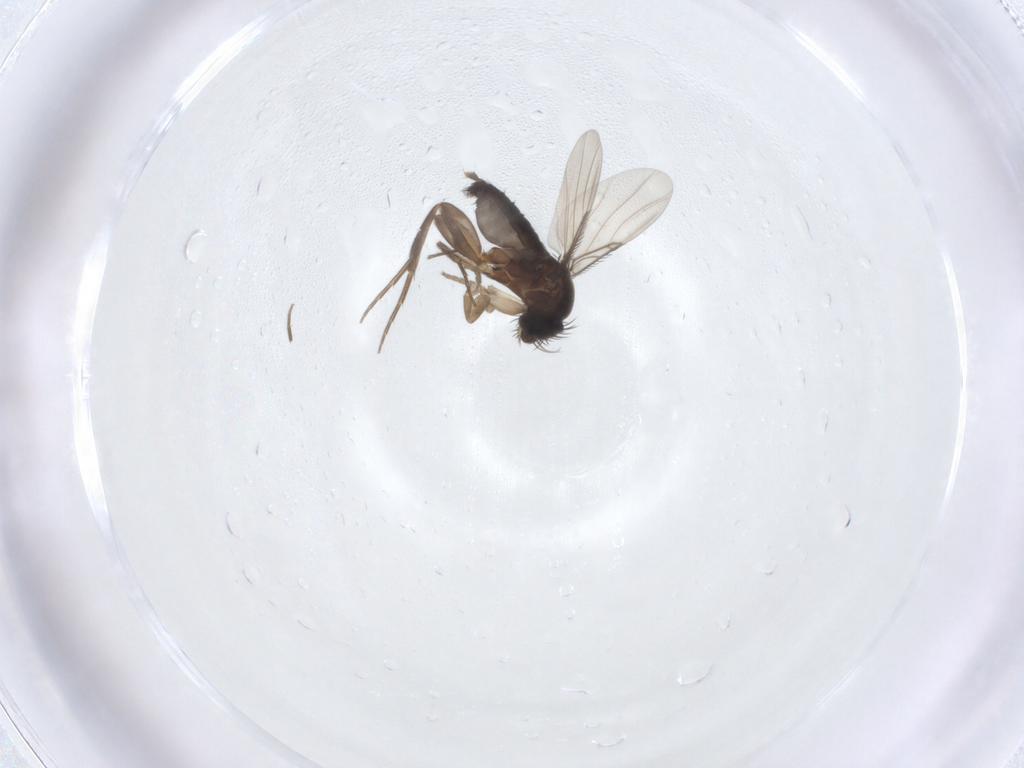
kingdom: Animalia
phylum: Arthropoda
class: Insecta
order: Diptera
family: Phoridae
